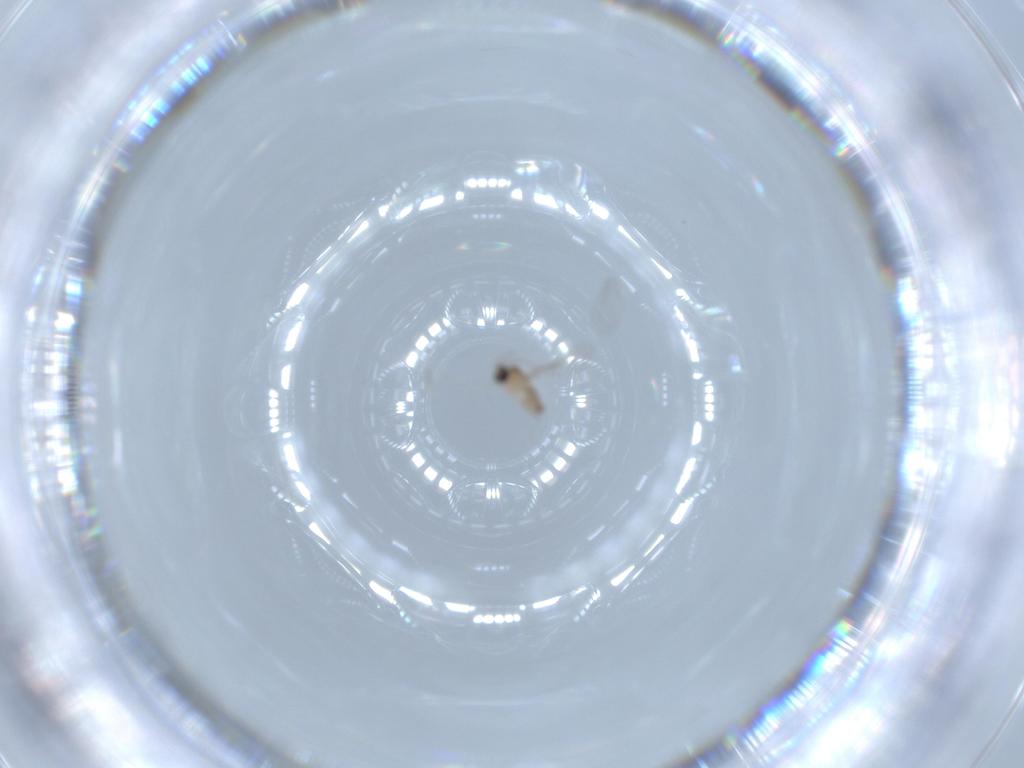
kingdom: Animalia
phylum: Arthropoda
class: Insecta
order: Diptera
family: Cecidomyiidae
